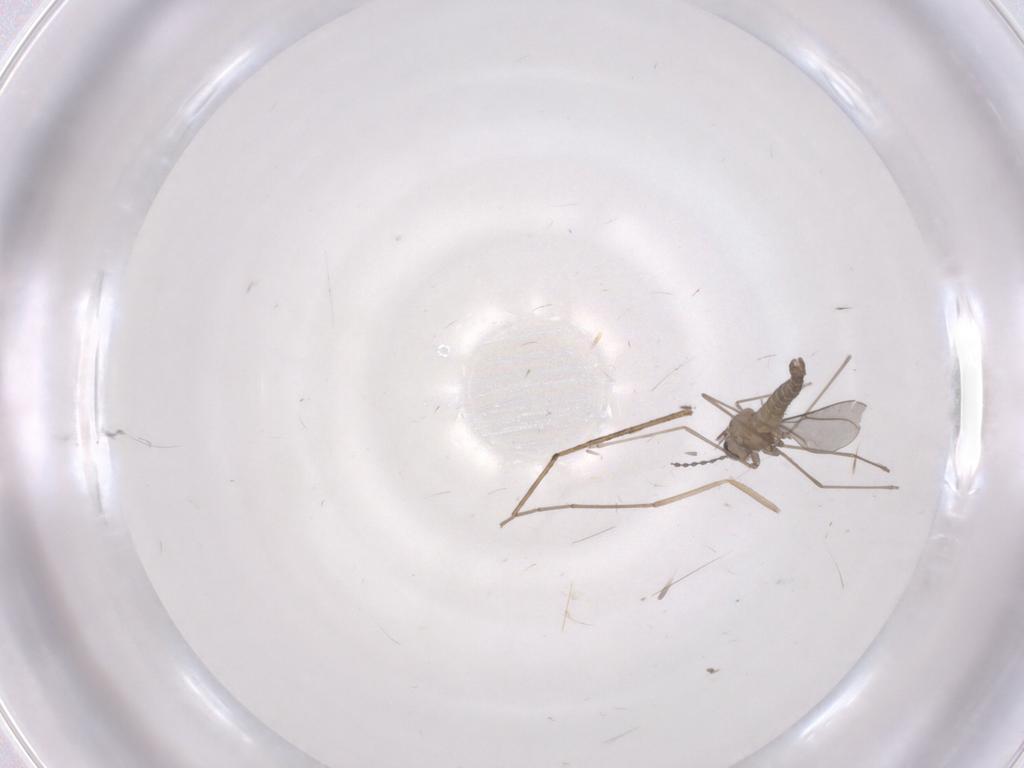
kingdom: Animalia
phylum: Arthropoda
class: Insecta
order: Diptera
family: Cecidomyiidae
